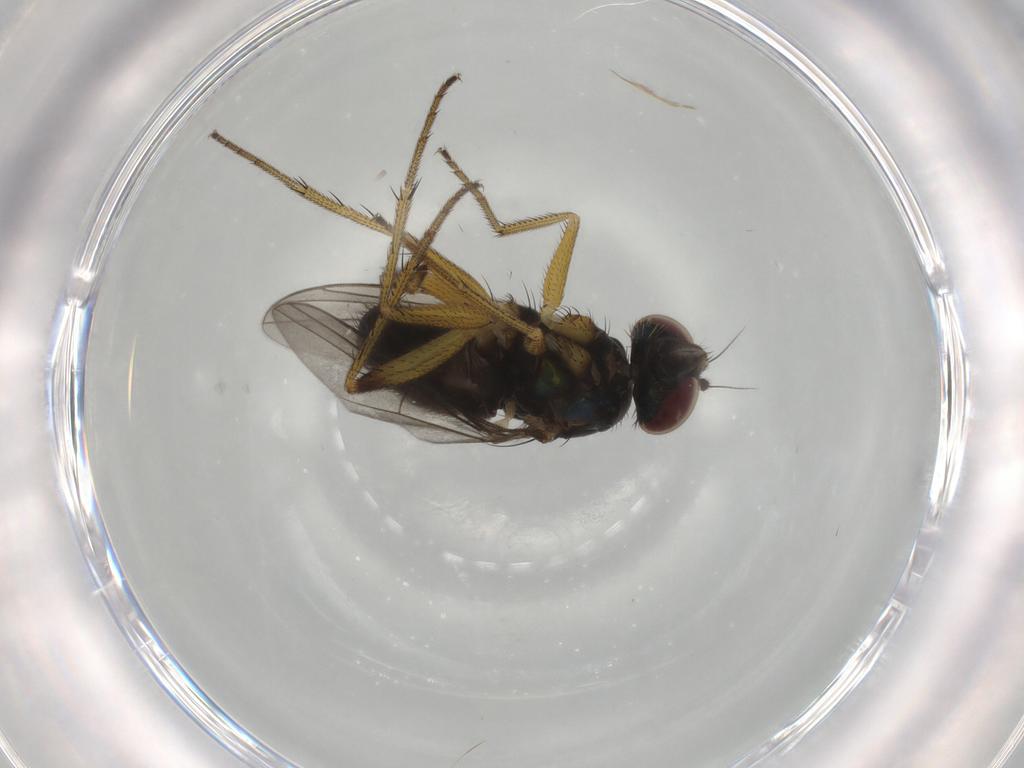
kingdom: Animalia
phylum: Arthropoda
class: Insecta
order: Diptera
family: Dolichopodidae
